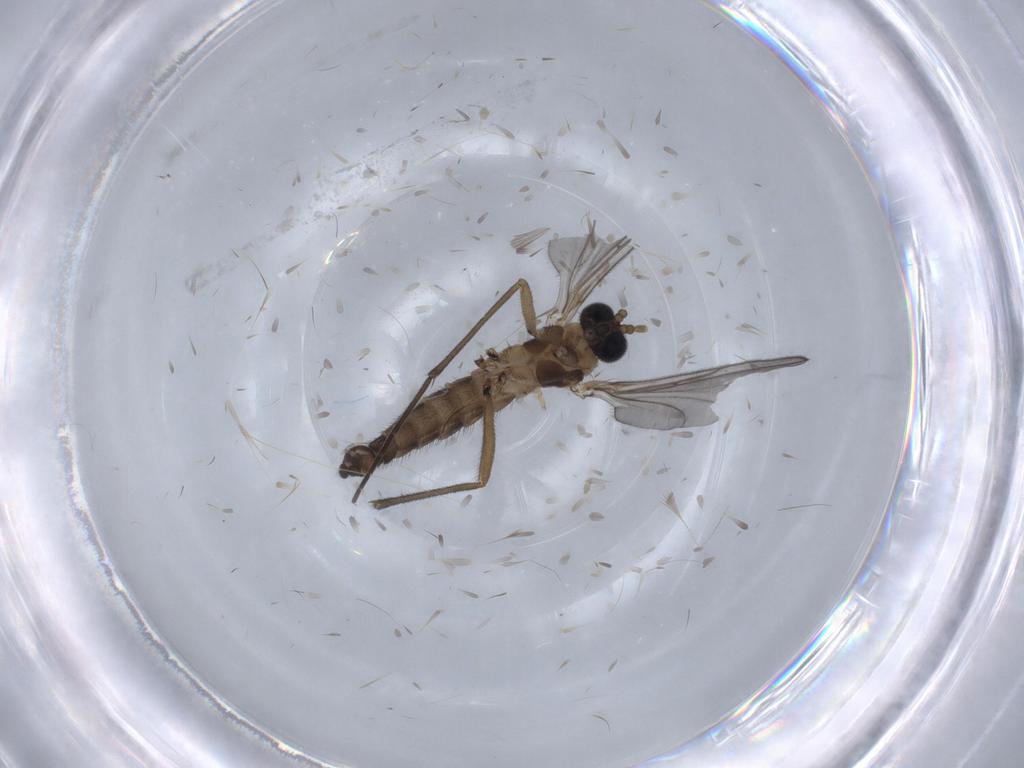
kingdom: Animalia
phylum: Arthropoda
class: Insecta
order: Diptera
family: Sciaridae
